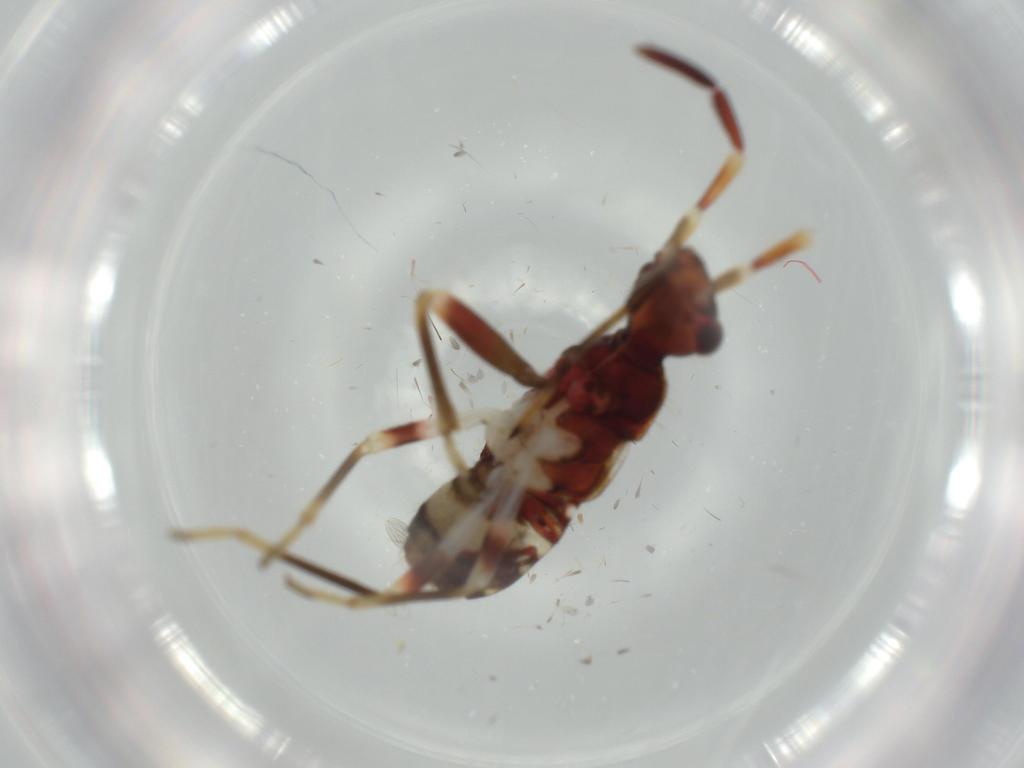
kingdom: Animalia
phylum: Arthropoda
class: Insecta
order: Hemiptera
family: Rhyparochromidae
